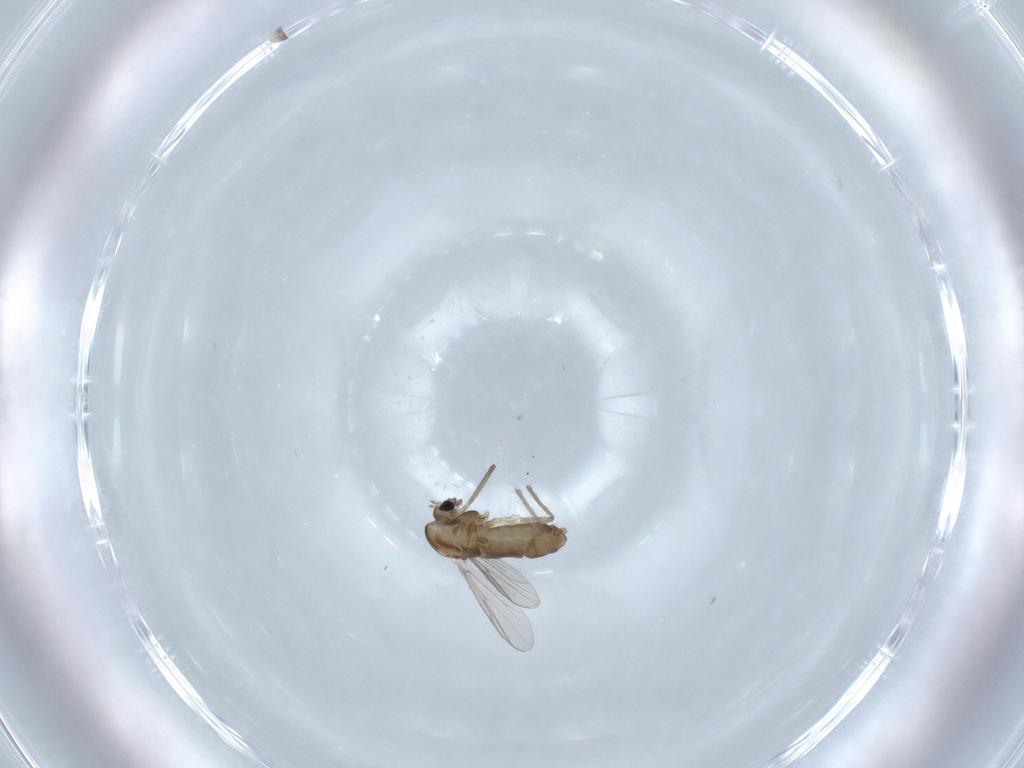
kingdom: Animalia
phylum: Arthropoda
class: Insecta
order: Diptera
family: Chironomidae
